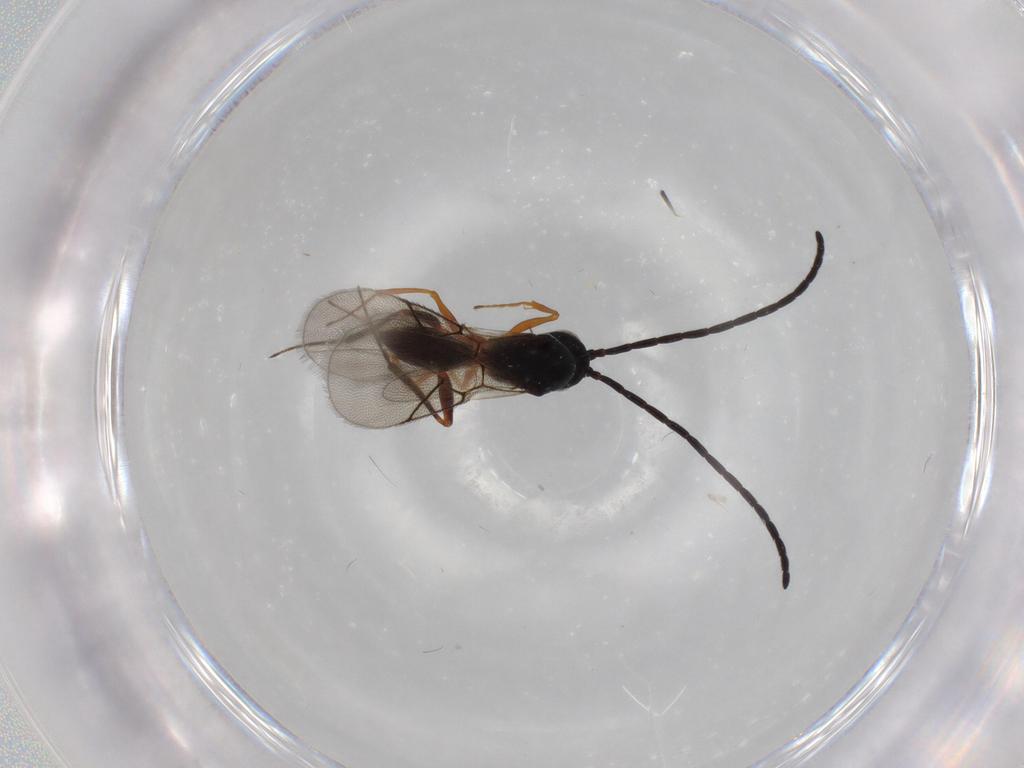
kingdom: Animalia
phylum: Arthropoda
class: Insecta
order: Hymenoptera
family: Figitidae
